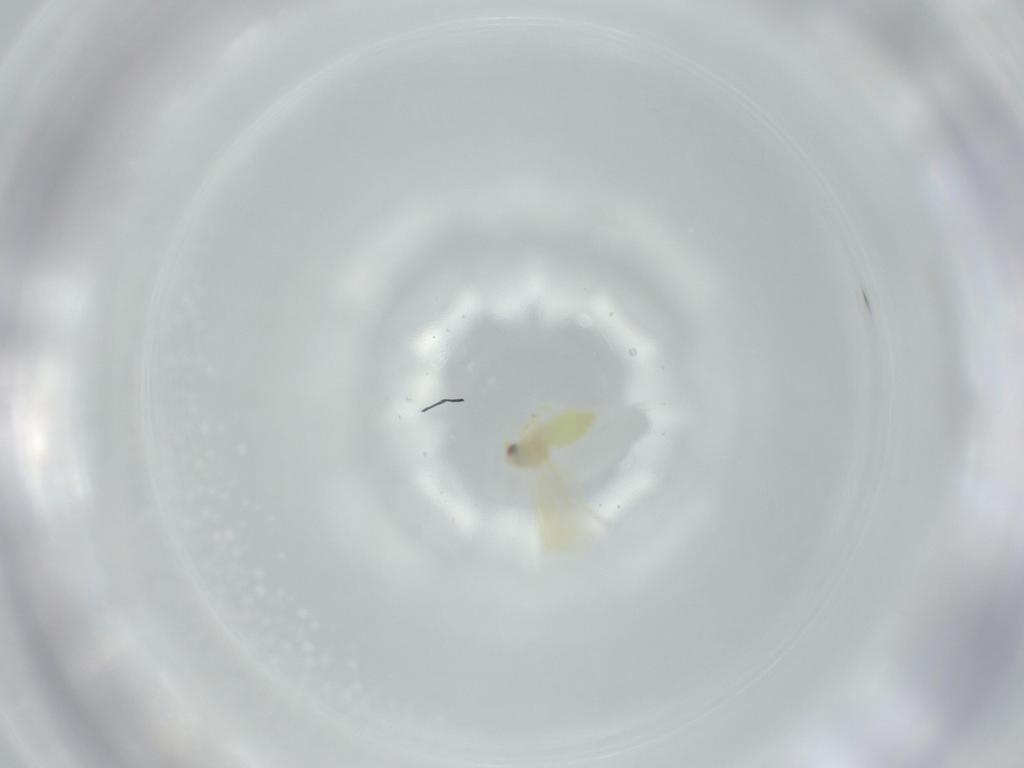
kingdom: Animalia
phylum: Arthropoda
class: Insecta
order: Hemiptera
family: Aleyrodidae
